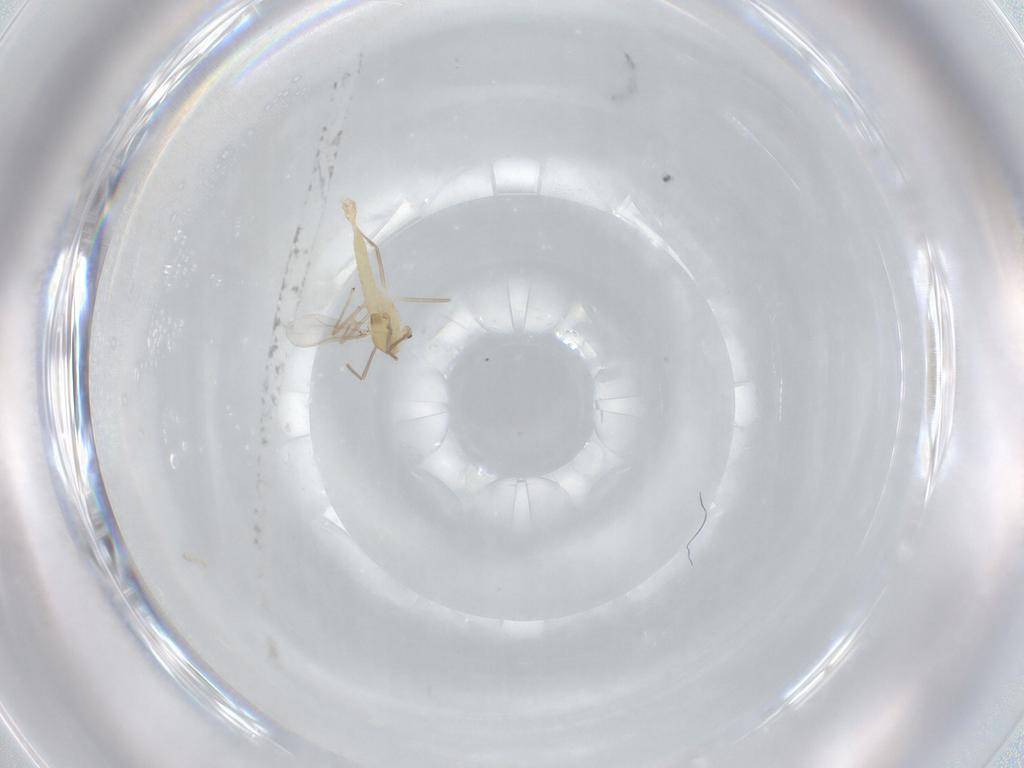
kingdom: Animalia
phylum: Arthropoda
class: Insecta
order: Diptera
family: Chironomidae
